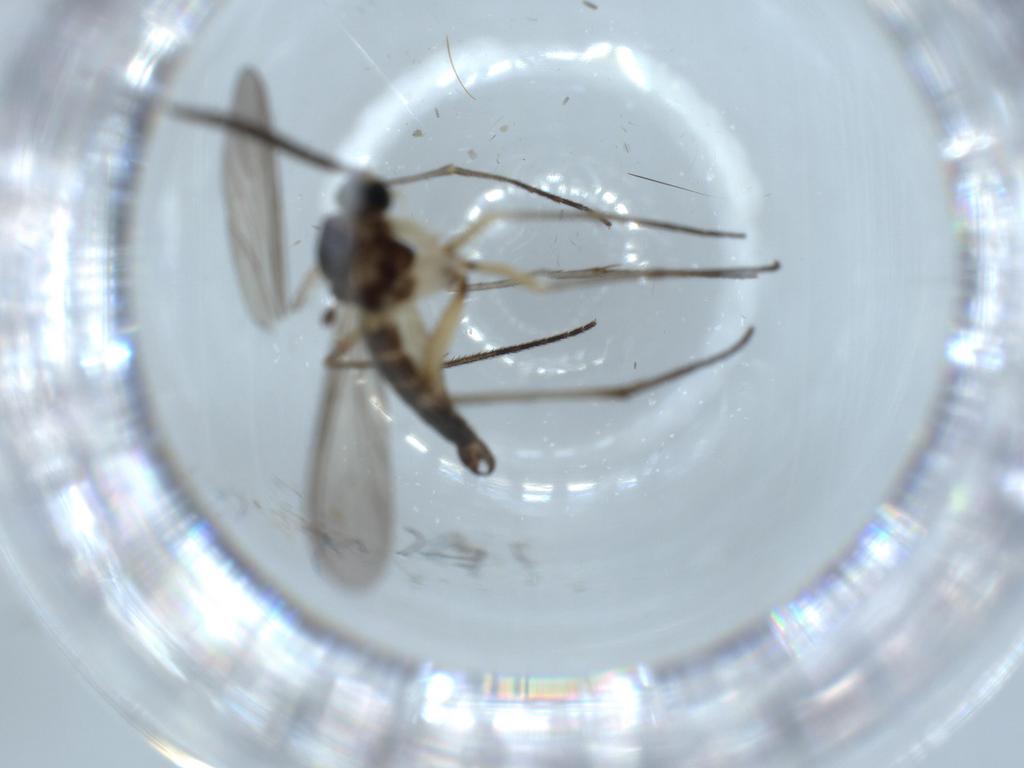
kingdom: Animalia
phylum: Arthropoda
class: Insecta
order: Diptera
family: Sciaridae
